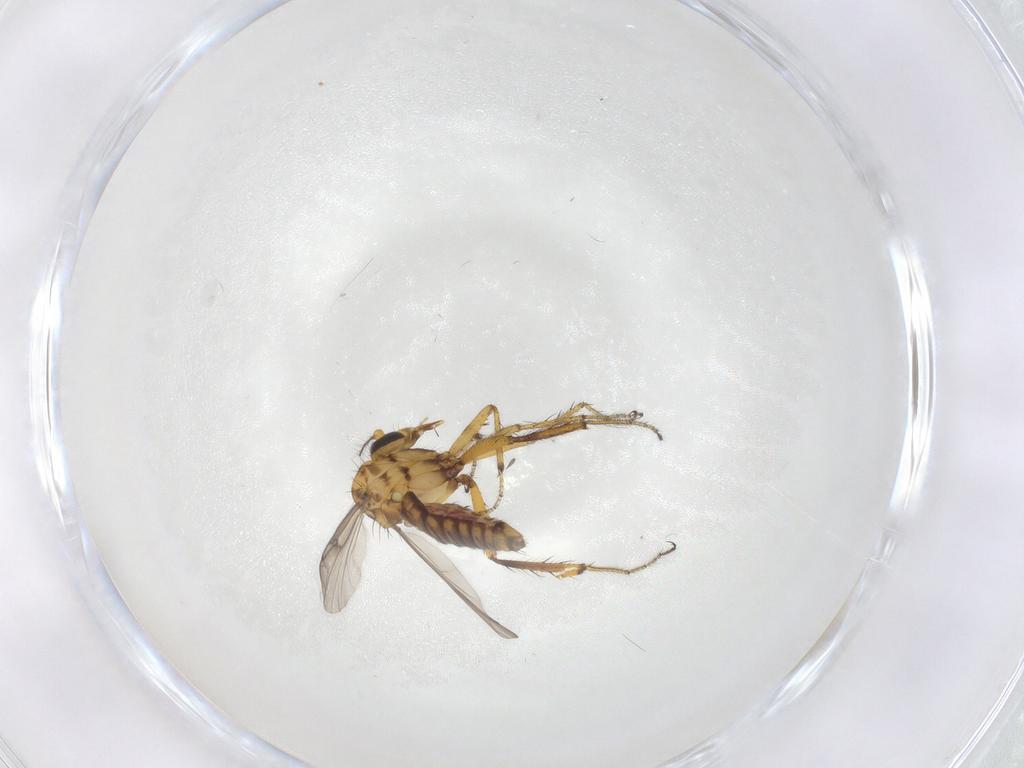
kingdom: Animalia
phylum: Arthropoda
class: Insecta
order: Diptera
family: Ceratopogonidae
